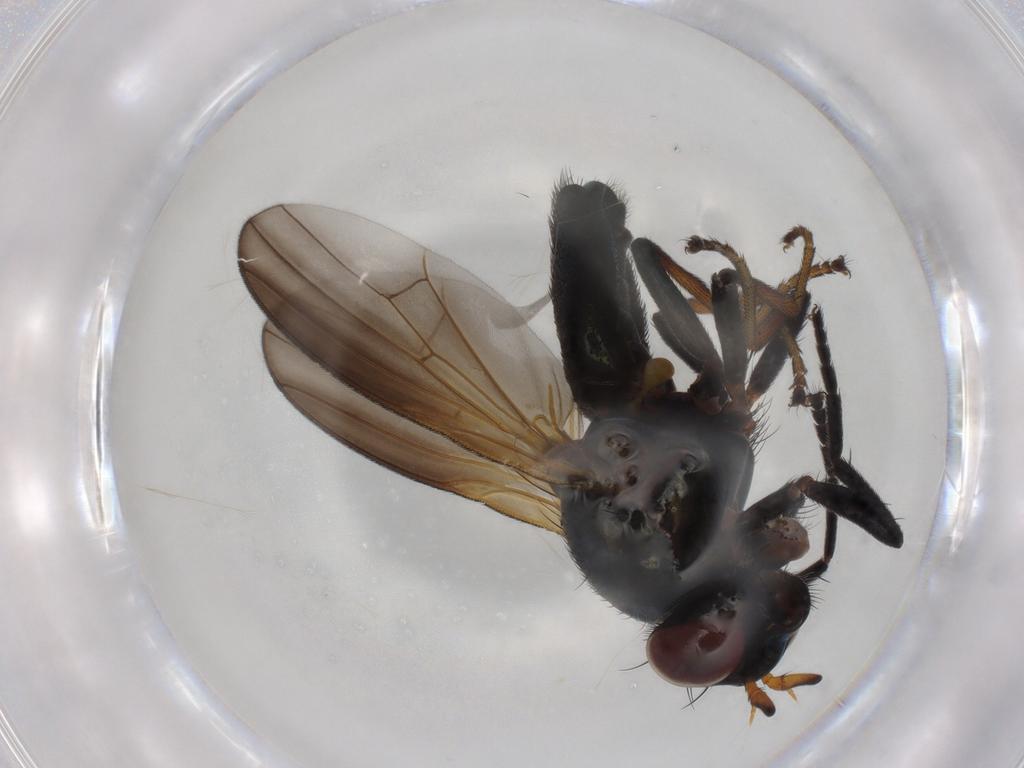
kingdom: Animalia
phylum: Arthropoda
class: Insecta
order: Diptera
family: Lauxaniidae
